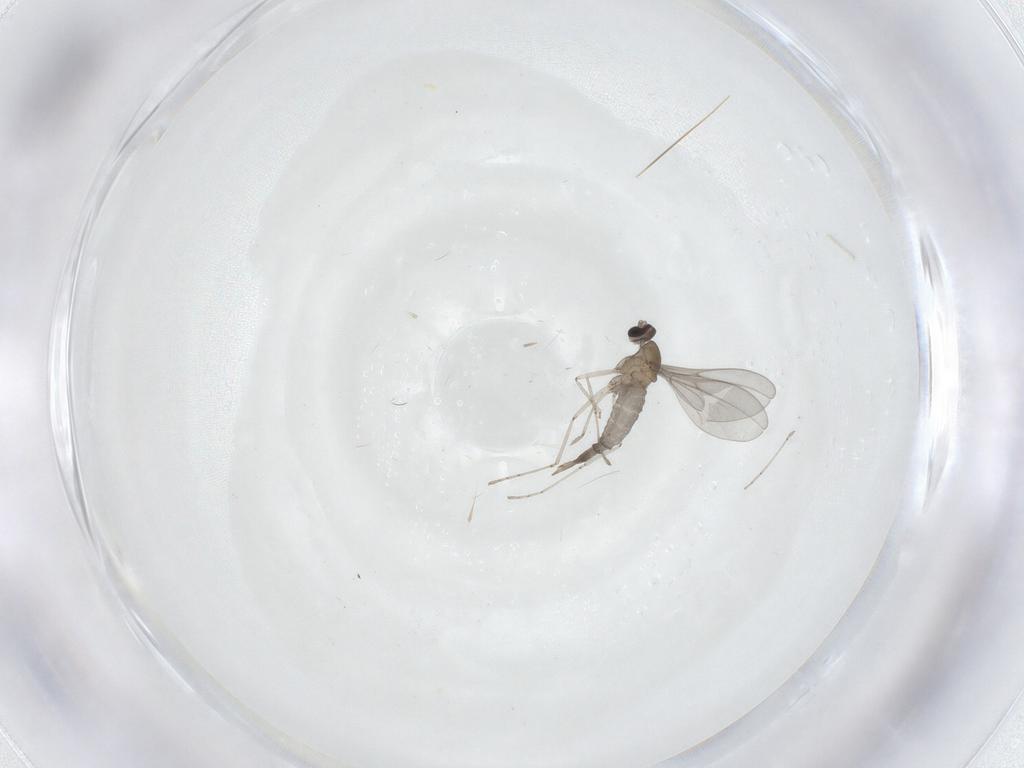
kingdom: Animalia
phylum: Arthropoda
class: Insecta
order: Diptera
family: Cecidomyiidae
